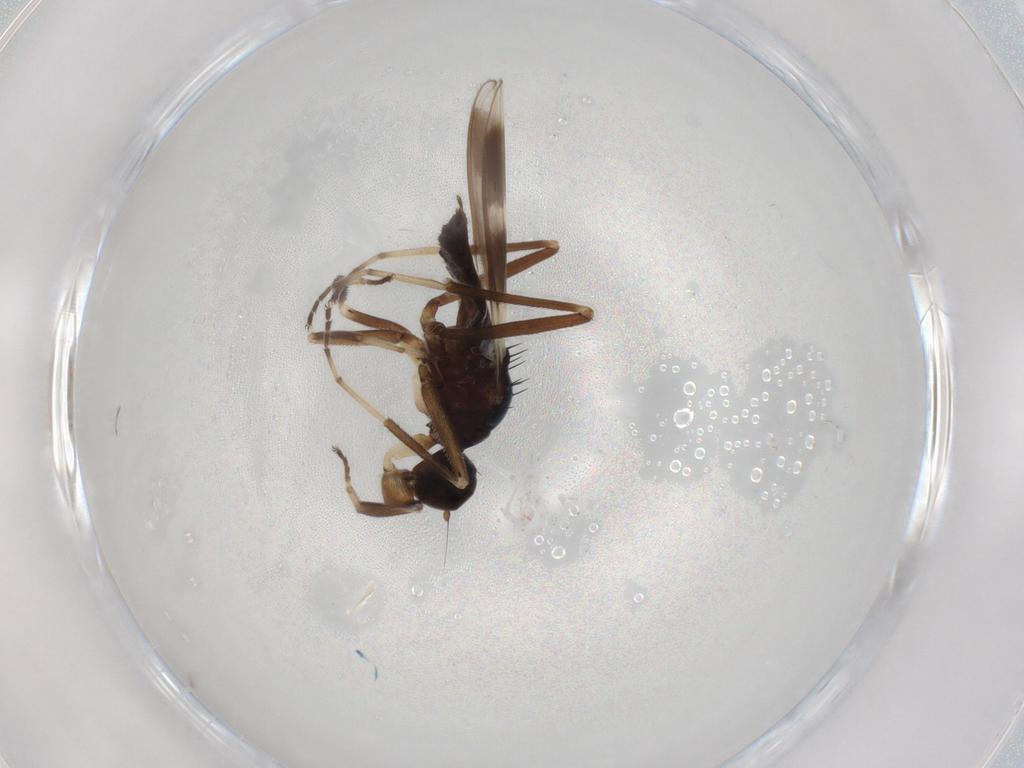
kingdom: Animalia
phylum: Arthropoda
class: Insecta
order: Diptera
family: Hybotidae
